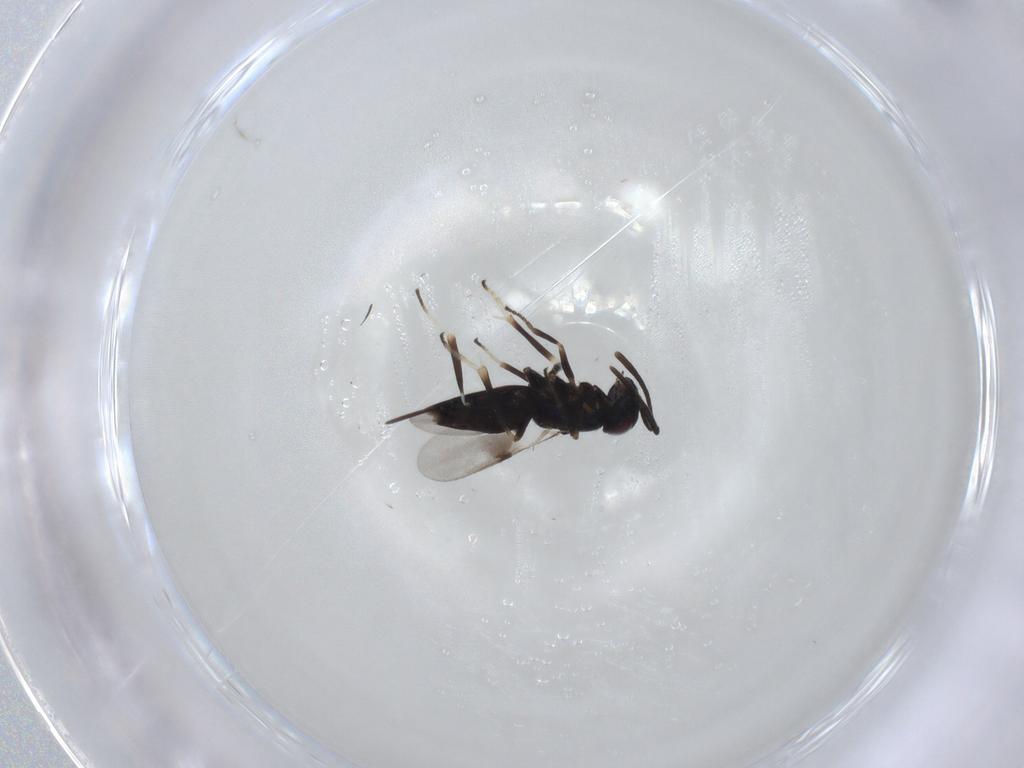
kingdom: Animalia
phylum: Arthropoda
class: Insecta
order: Hymenoptera
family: Braconidae
